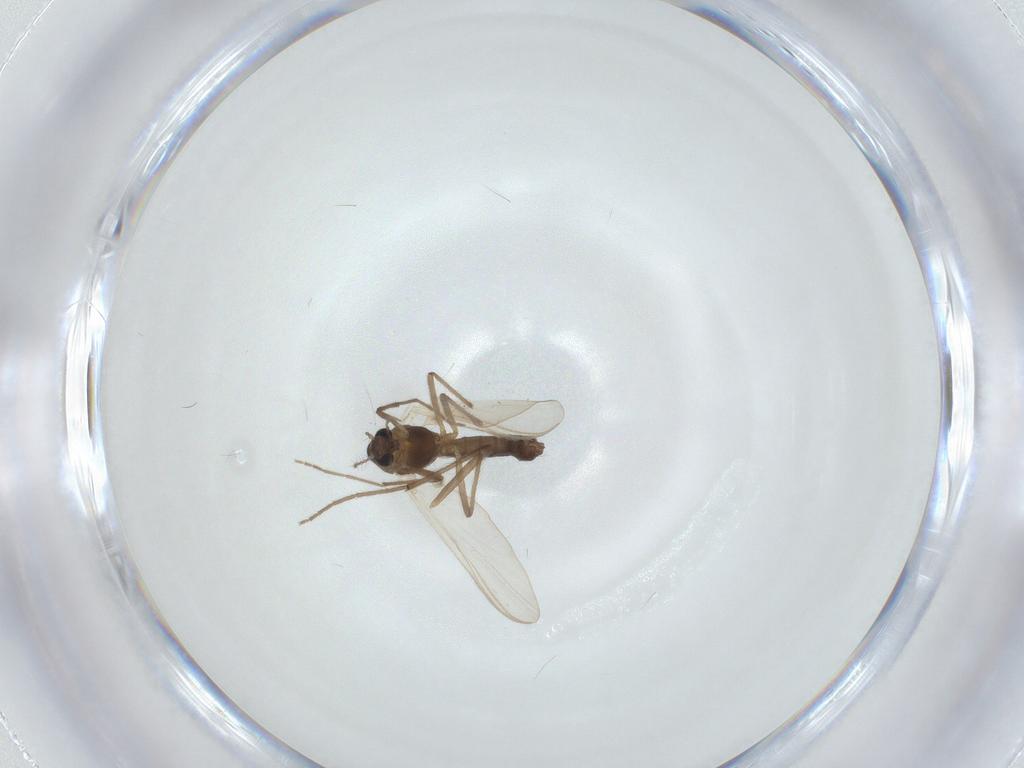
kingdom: Animalia
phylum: Arthropoda
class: Insecta
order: Diptera
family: Chironomidae
